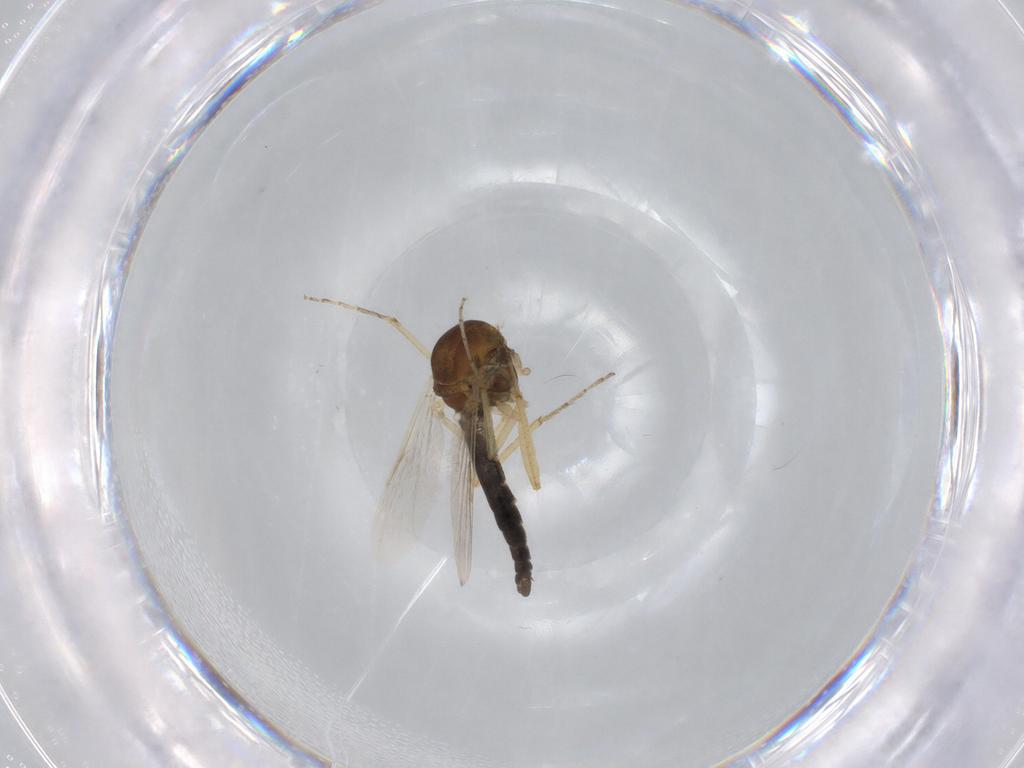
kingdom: Animalia
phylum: Arthropoda
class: Insecta
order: Diptera
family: Ceratopogonidae
